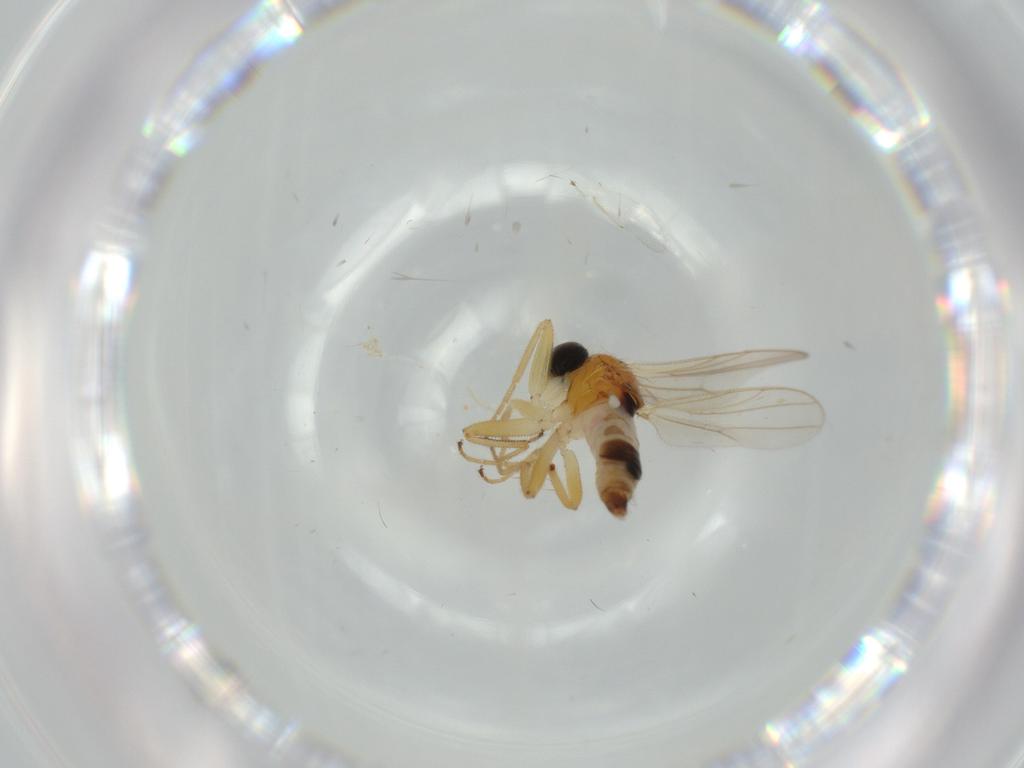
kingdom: Animalia
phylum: Arthropoda
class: Insecta
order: Diptera
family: Hybotidae
